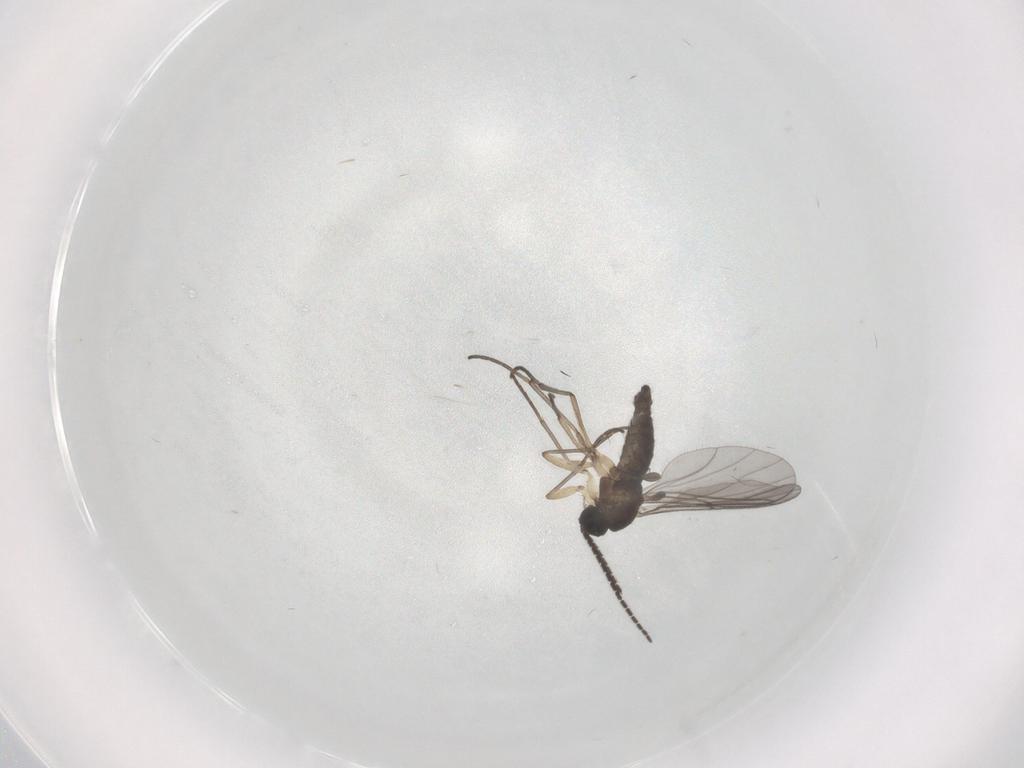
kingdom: Animalia
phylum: Arthropoda
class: Insecta
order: Diptera
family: Sciaridae
